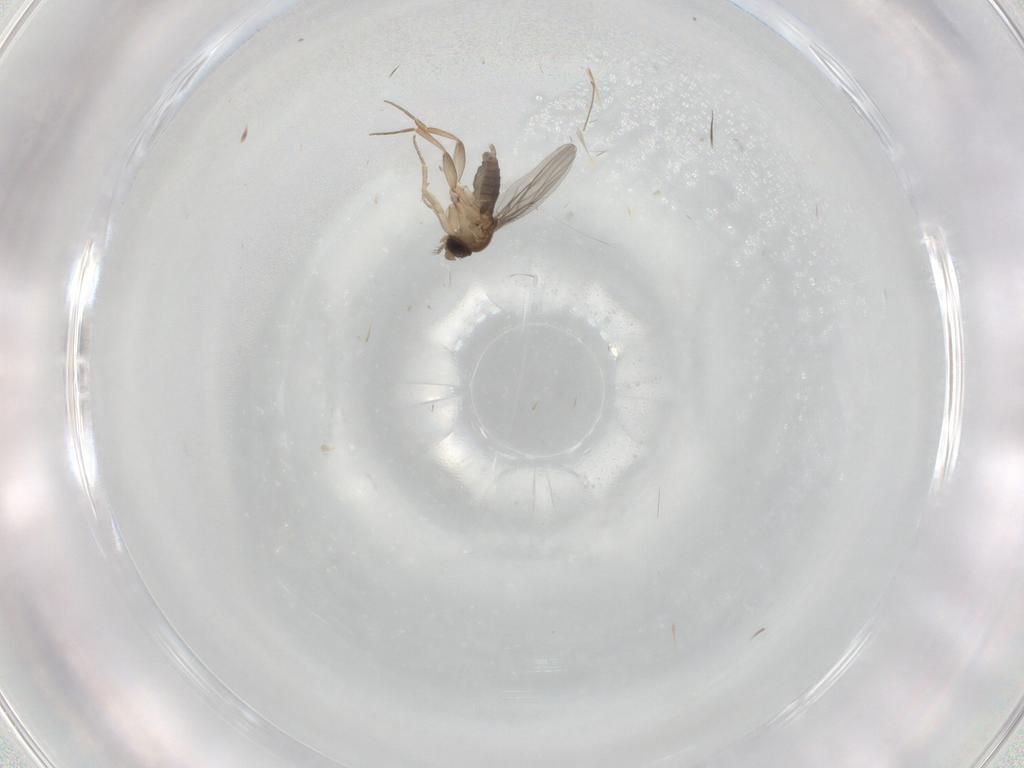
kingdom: Animalia
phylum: Arthropoda
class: Insecta
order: Diptera
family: Chironomidae
